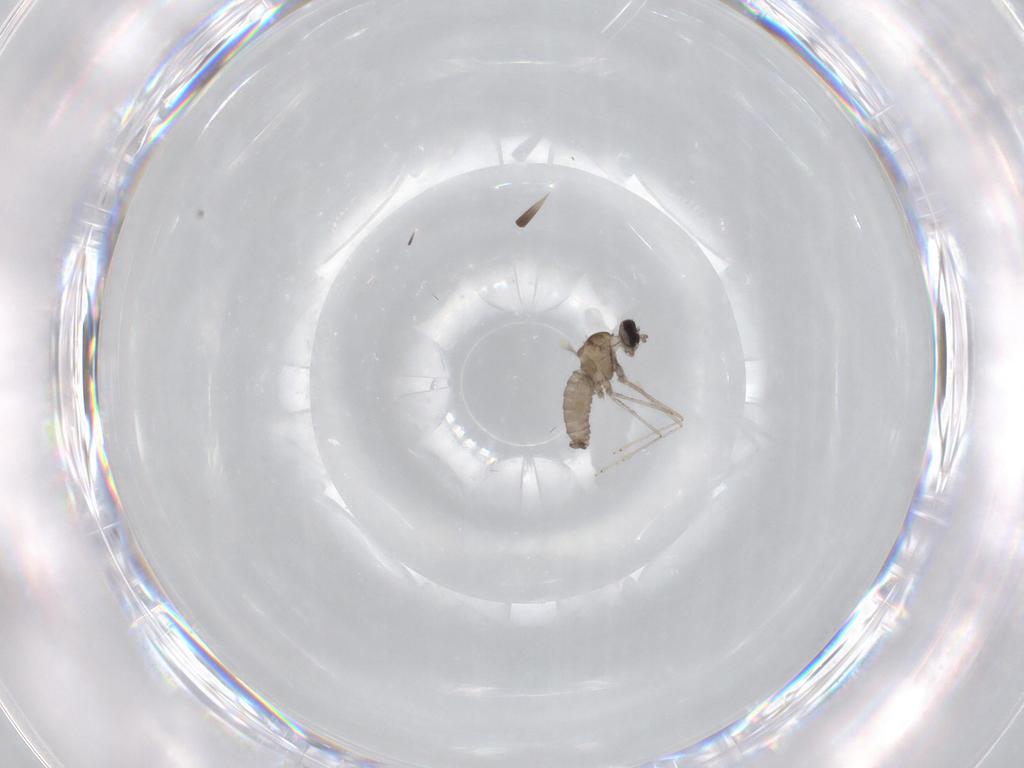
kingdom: Animalia
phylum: Arthropoda
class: Insecta
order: Diptera
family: Cecidomyiidae
